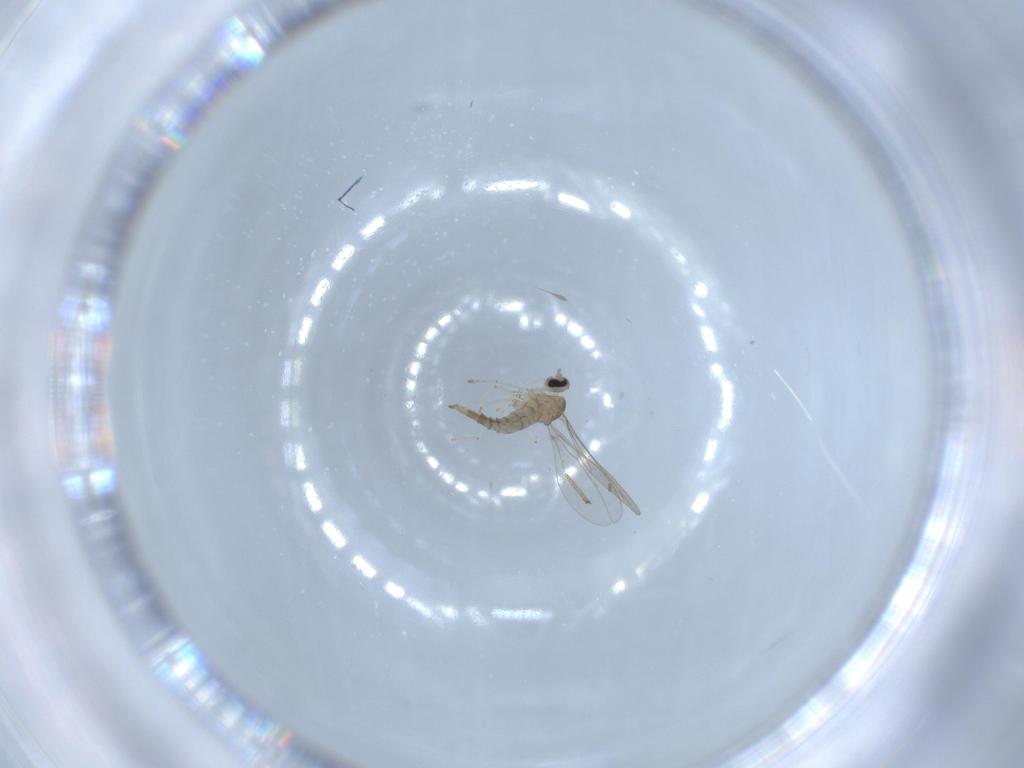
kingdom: Animalia
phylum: Arthropoda
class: Insecta
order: Diptera
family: Cecidomyiidae
